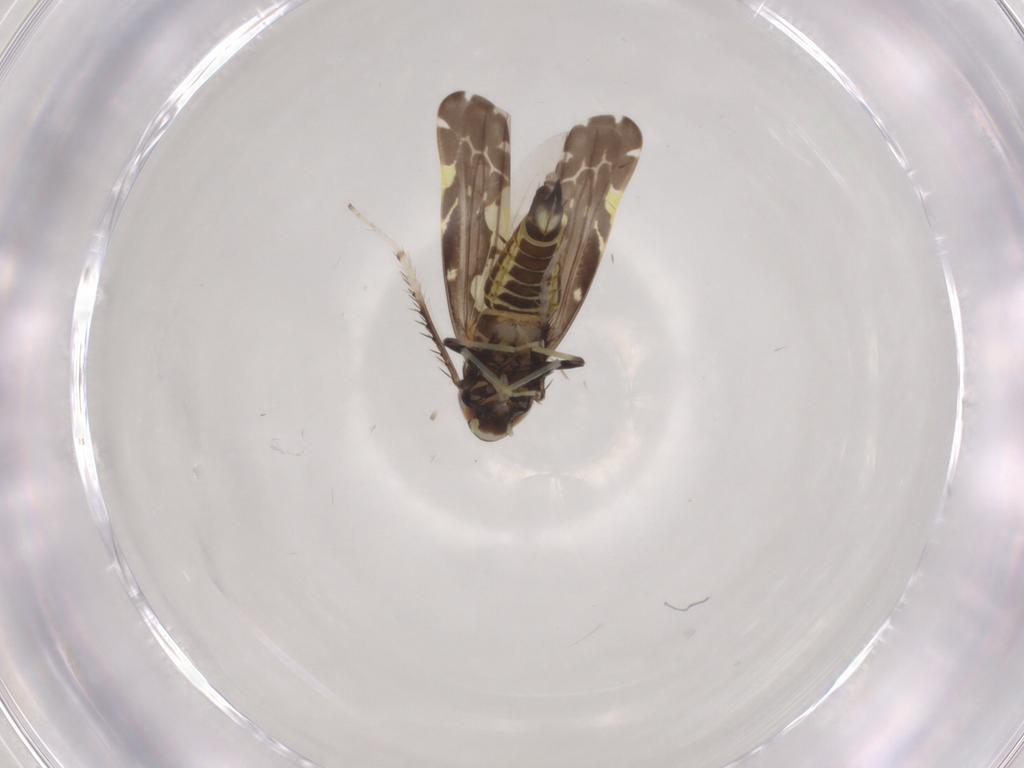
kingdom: Animalia
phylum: Arthropoda
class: Insecta
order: Hemiptera
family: Cicadellidae
